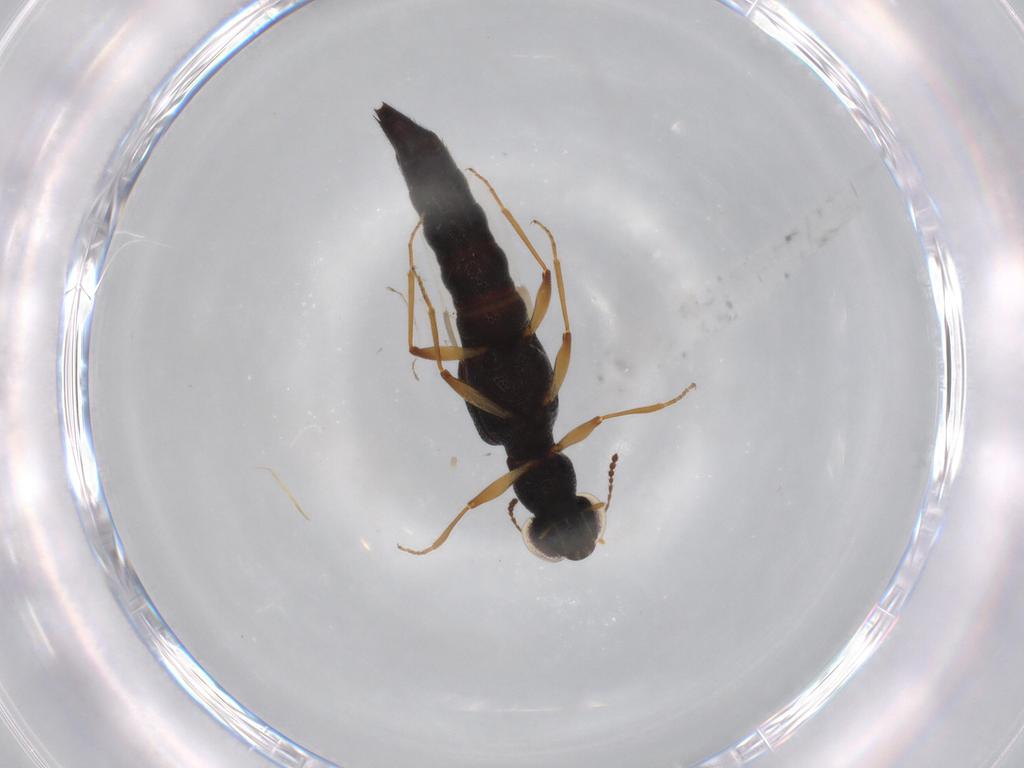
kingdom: Animalia
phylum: Arthropoda
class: Insecta
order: Coleoptera
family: Staphylinidae
